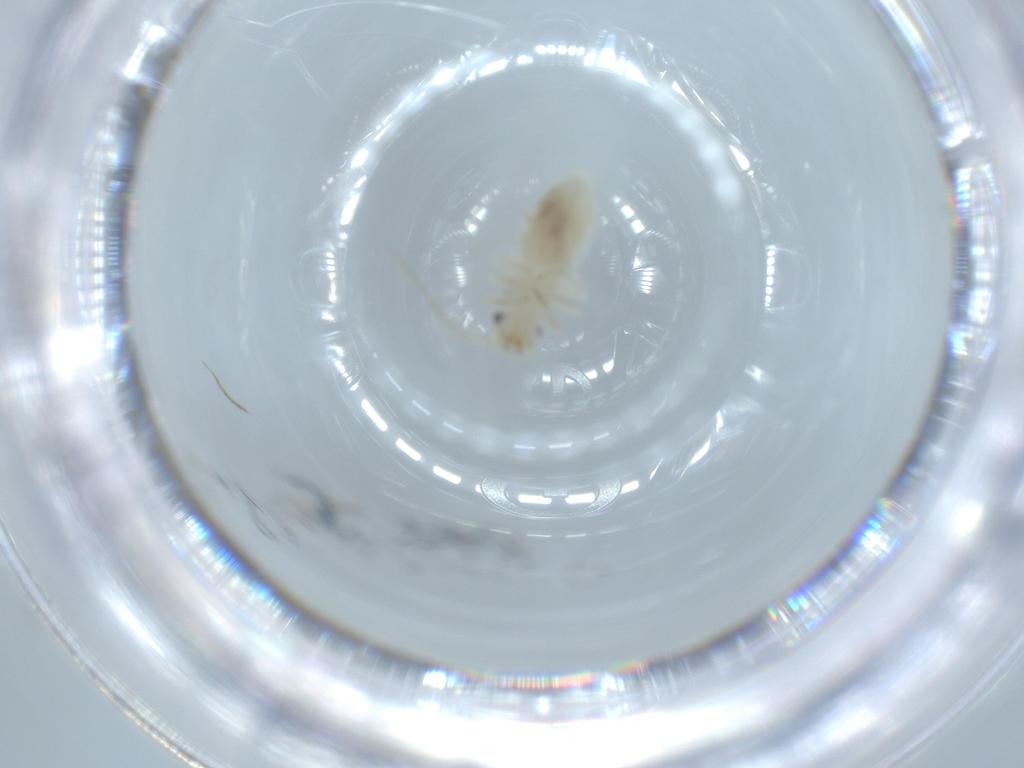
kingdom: Animalia
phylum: Arthropoda
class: Insecta
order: Psocodea
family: Caeciliusidae
